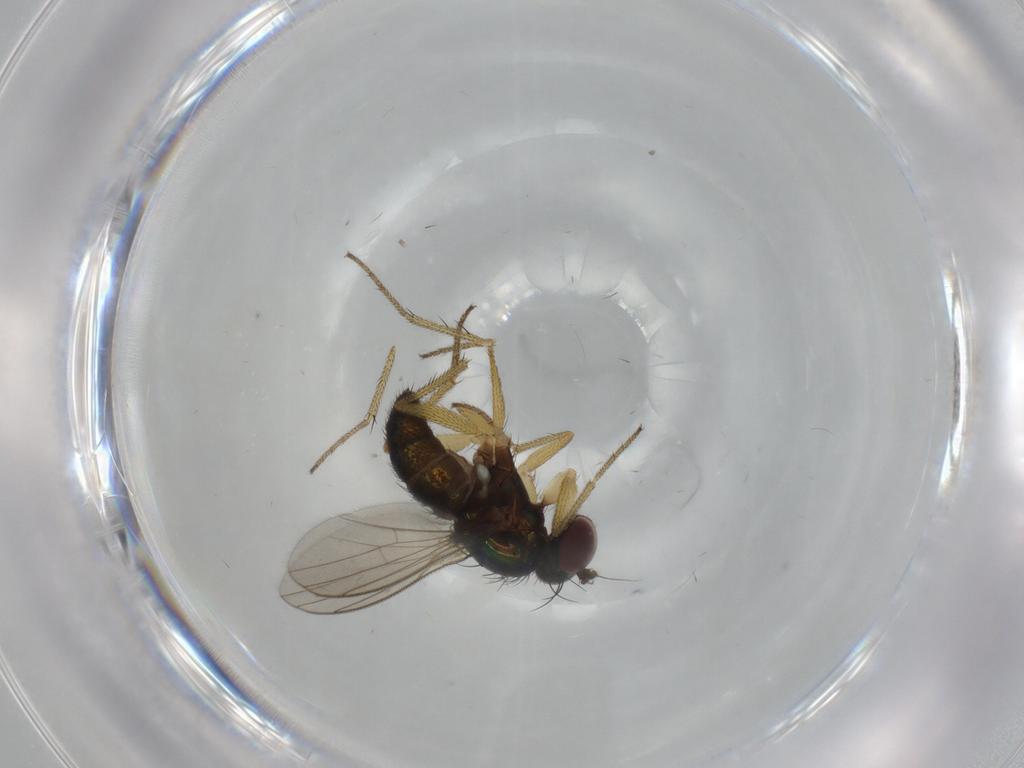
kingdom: Animalia
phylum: Arthropoda
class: Insecta
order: Diptera
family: Dolichopodidae
